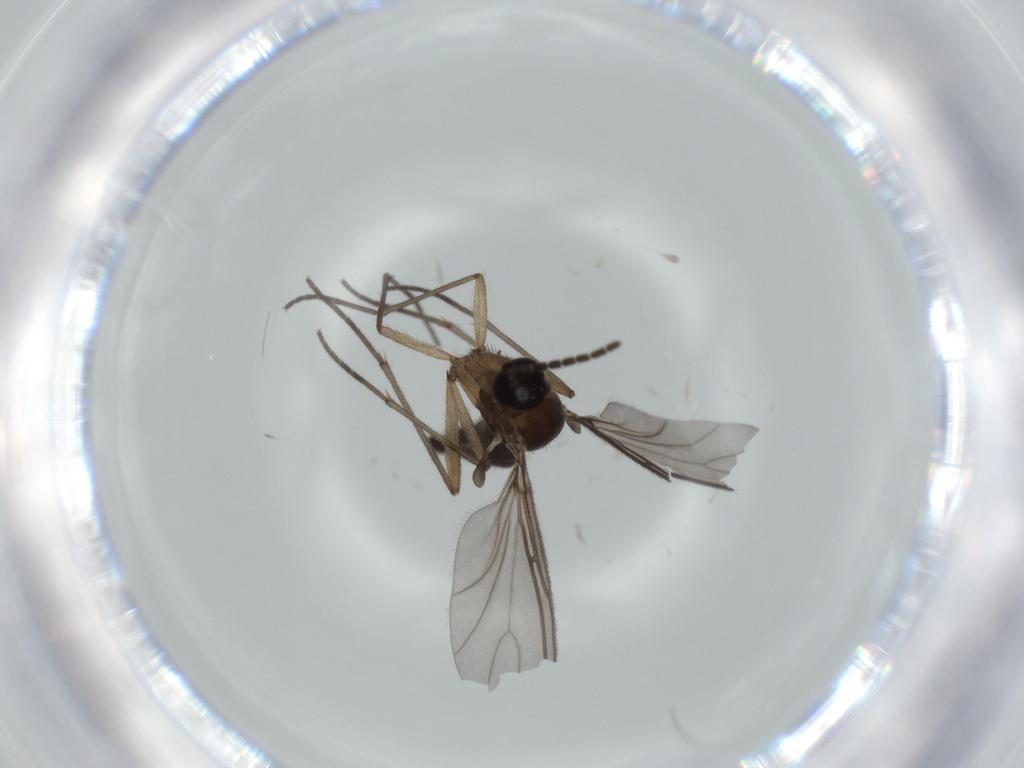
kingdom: Animalia
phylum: Arthropoda
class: Insecta
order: Diptera
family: Sciaridae
